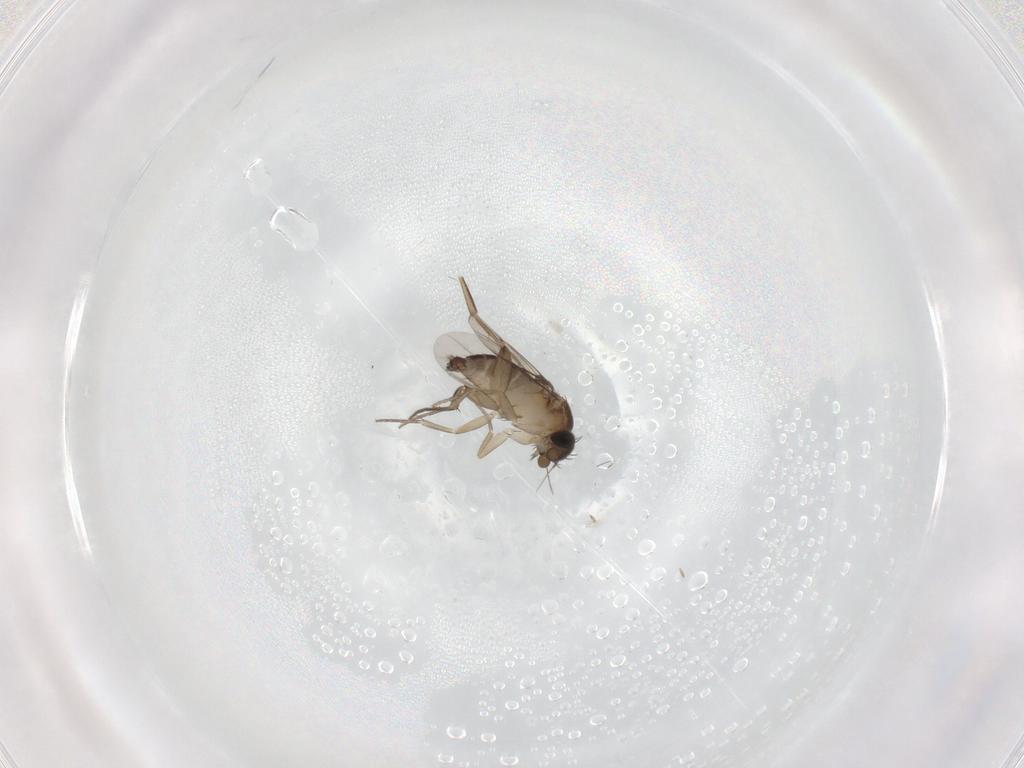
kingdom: Animalia
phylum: Arthropoda
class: Insecta
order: Diptera
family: Phoridae
